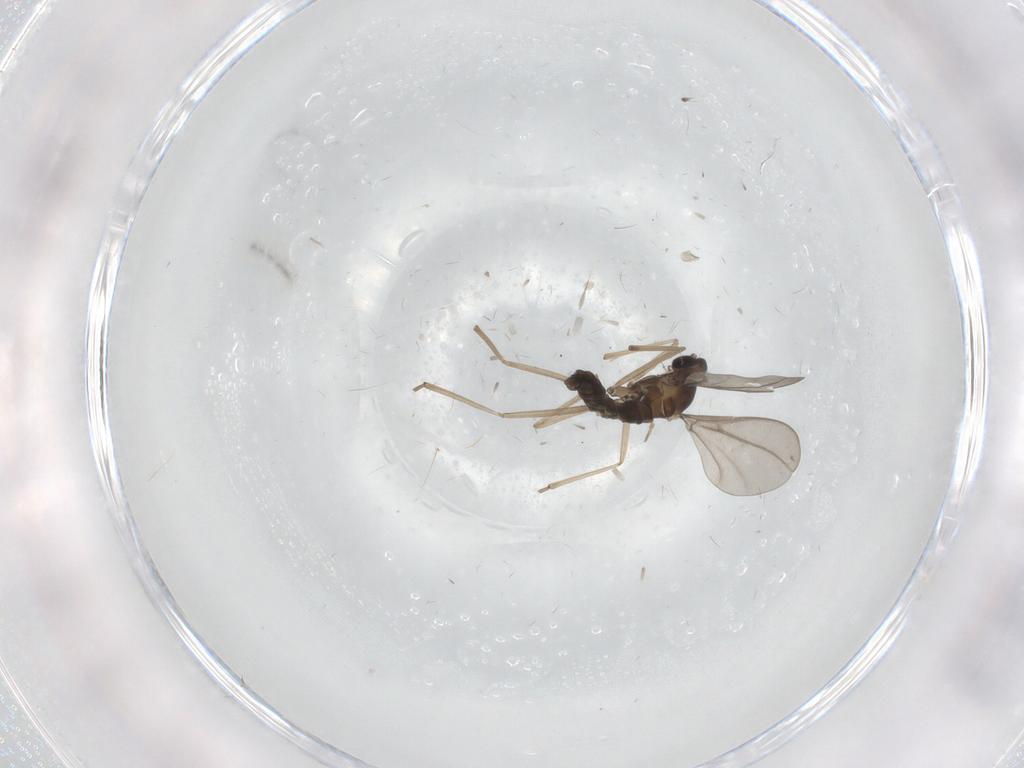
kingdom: Animalia
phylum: Arthropoda
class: Insecta
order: Diptera
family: Cecidomyiidae
